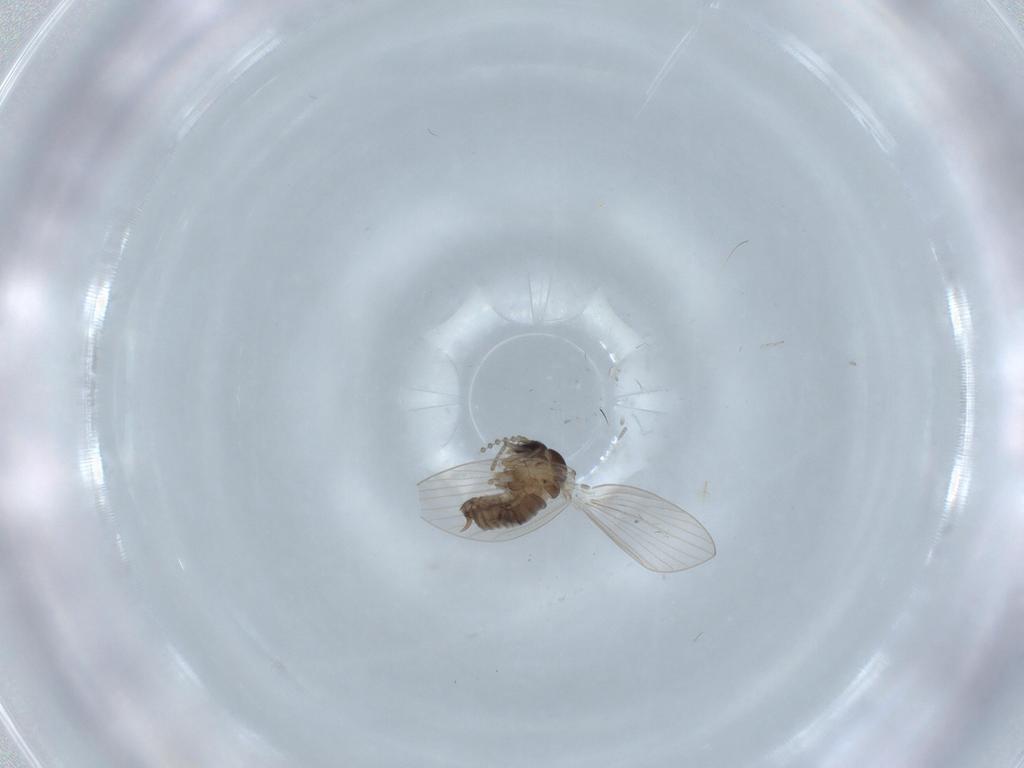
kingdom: Animalia
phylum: Arthropoda
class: Insecta
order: Diptera
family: Psychodidae
